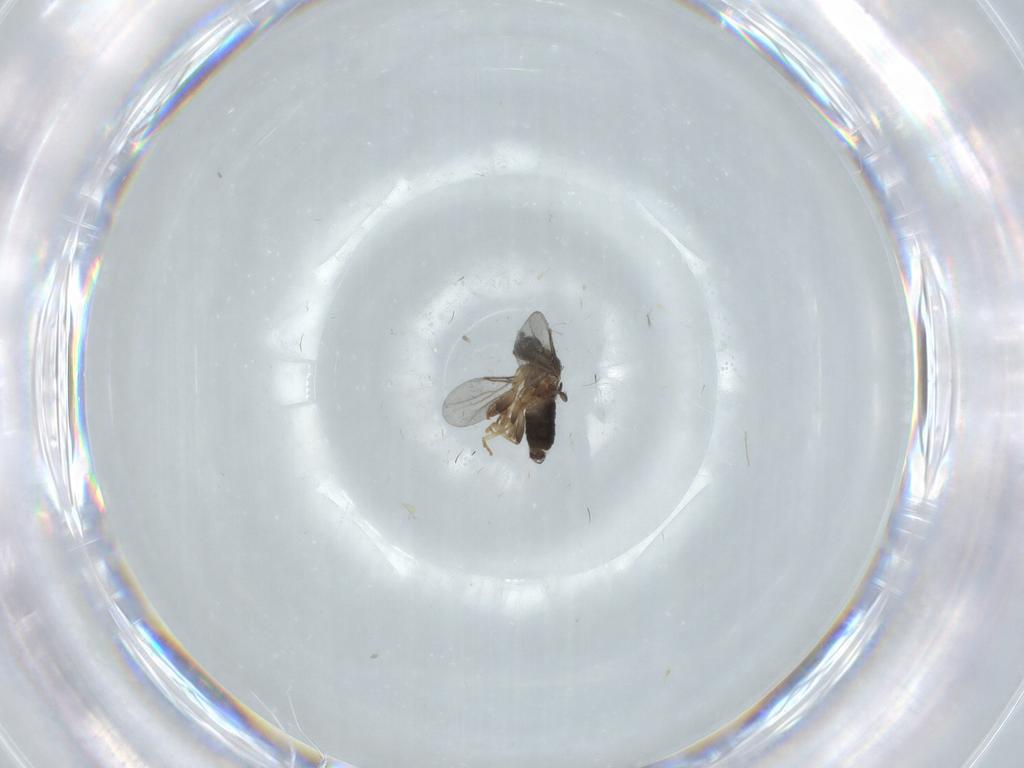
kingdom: Animalia
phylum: Arthropoda
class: Insecta
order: Diptera
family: Phoridae
